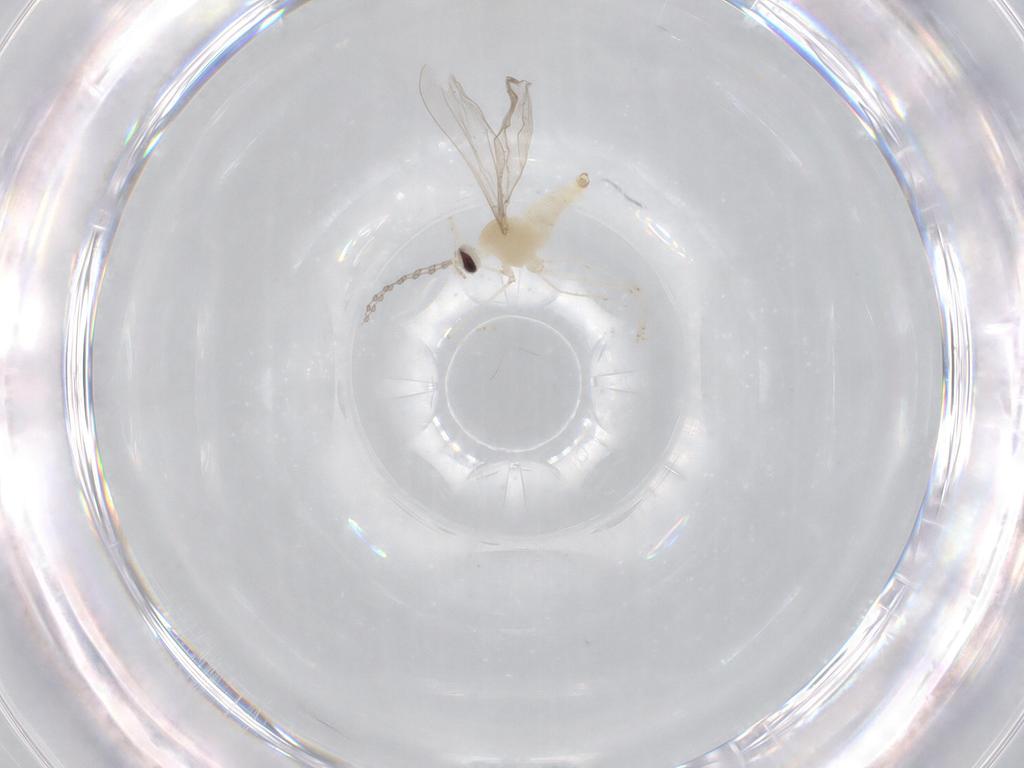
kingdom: Animalia
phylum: Arthropoda
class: Insecta
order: Diptera
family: Cecidomyiidae
